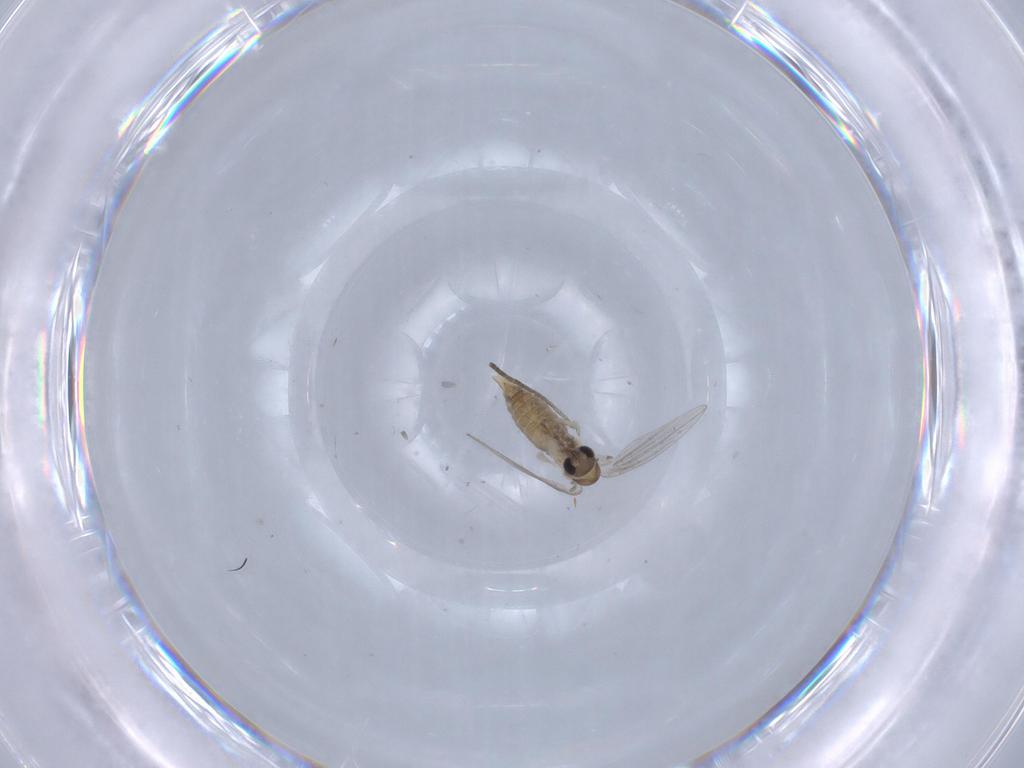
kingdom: Animalia
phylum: Arthropoda
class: Insecta
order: Diptera
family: Psychodidae
